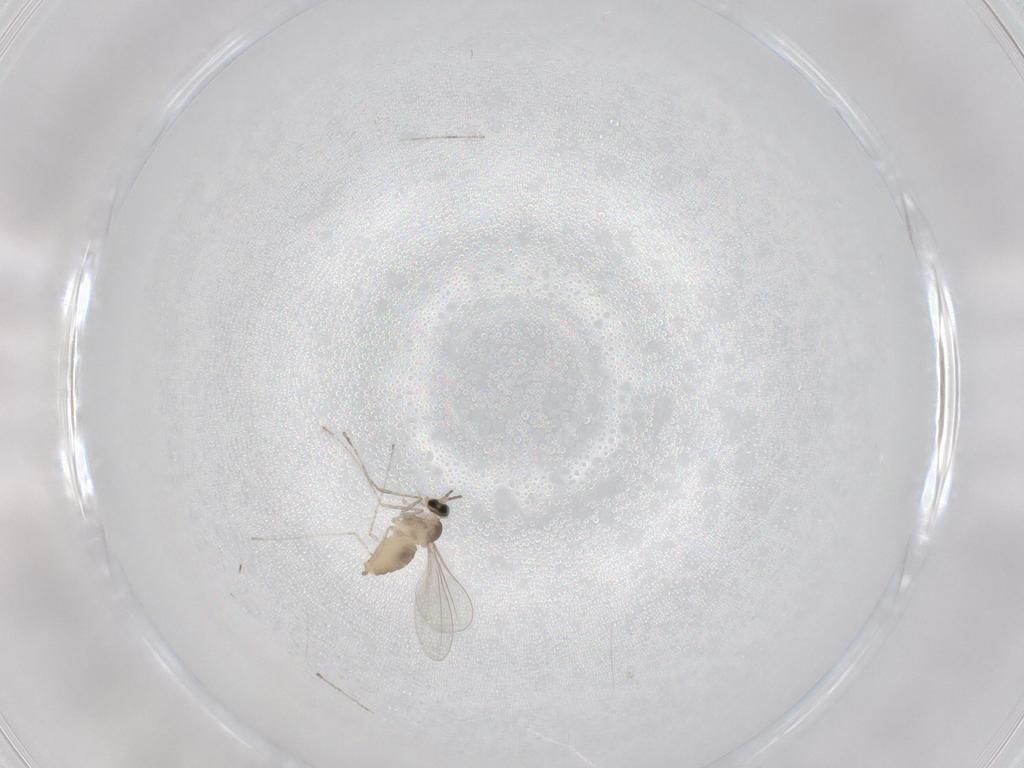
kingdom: Animalia
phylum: Arthropoda
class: Insecta
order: Diptera
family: Cecidomyiidae
